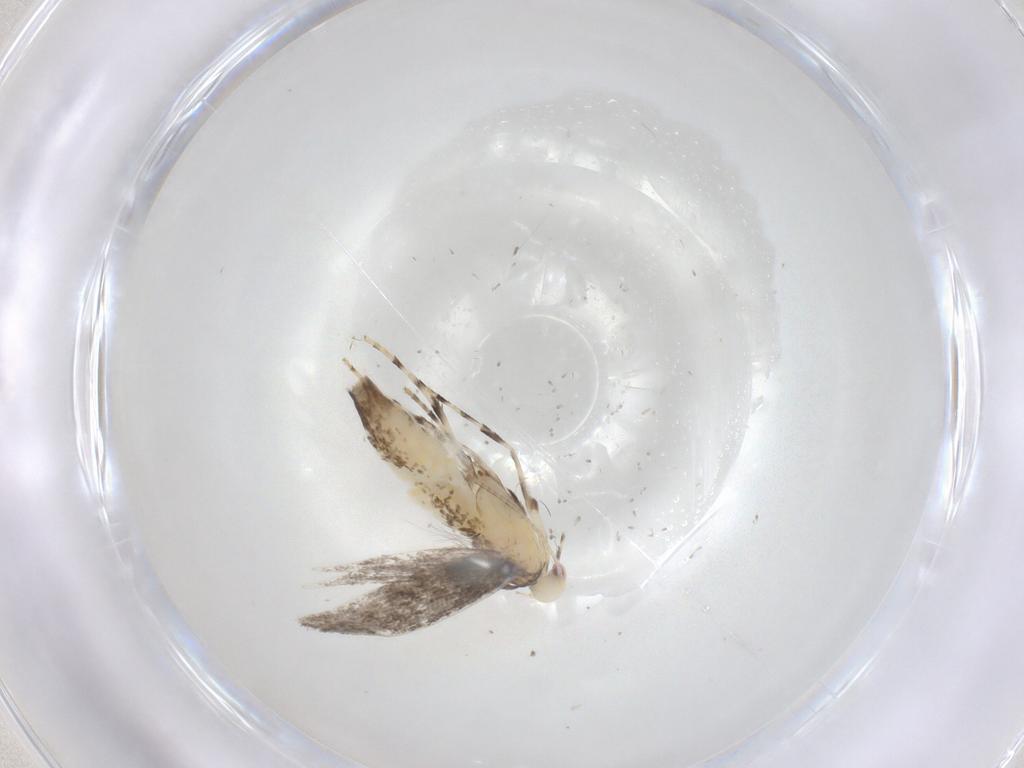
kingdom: Animalia
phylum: Arthropoda
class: Insecta
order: Lepidoptera
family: Gracillariidae
